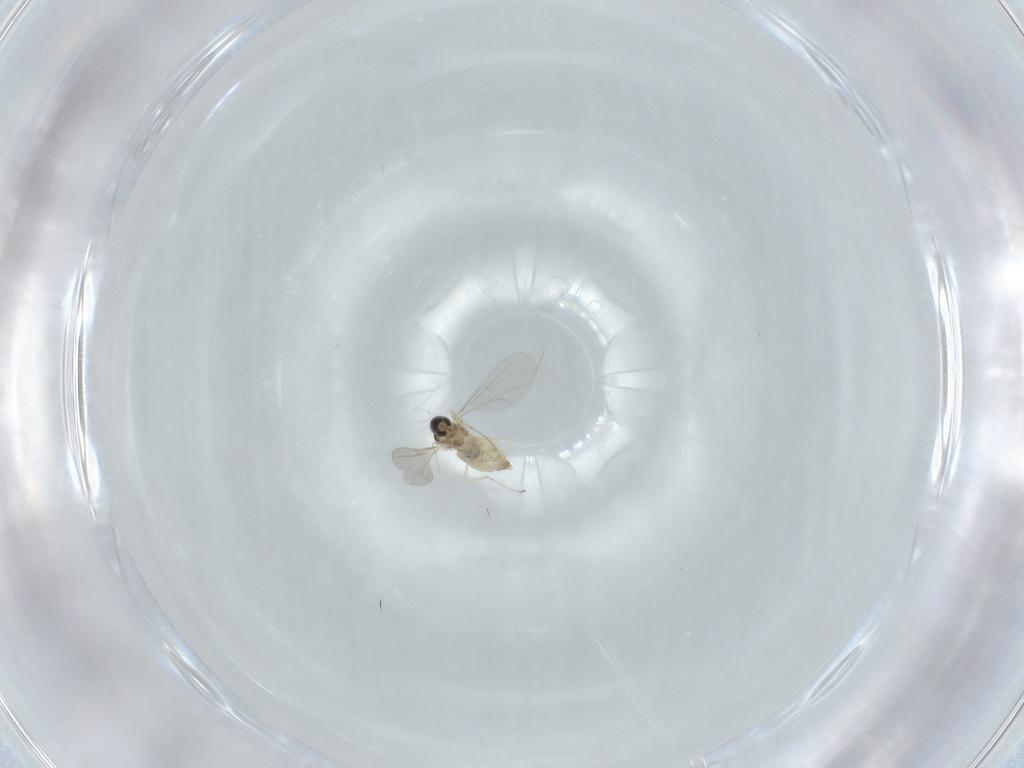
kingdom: Animalia
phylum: Arthropoda
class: Insecta
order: Diptera
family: Cecidomyiidae
